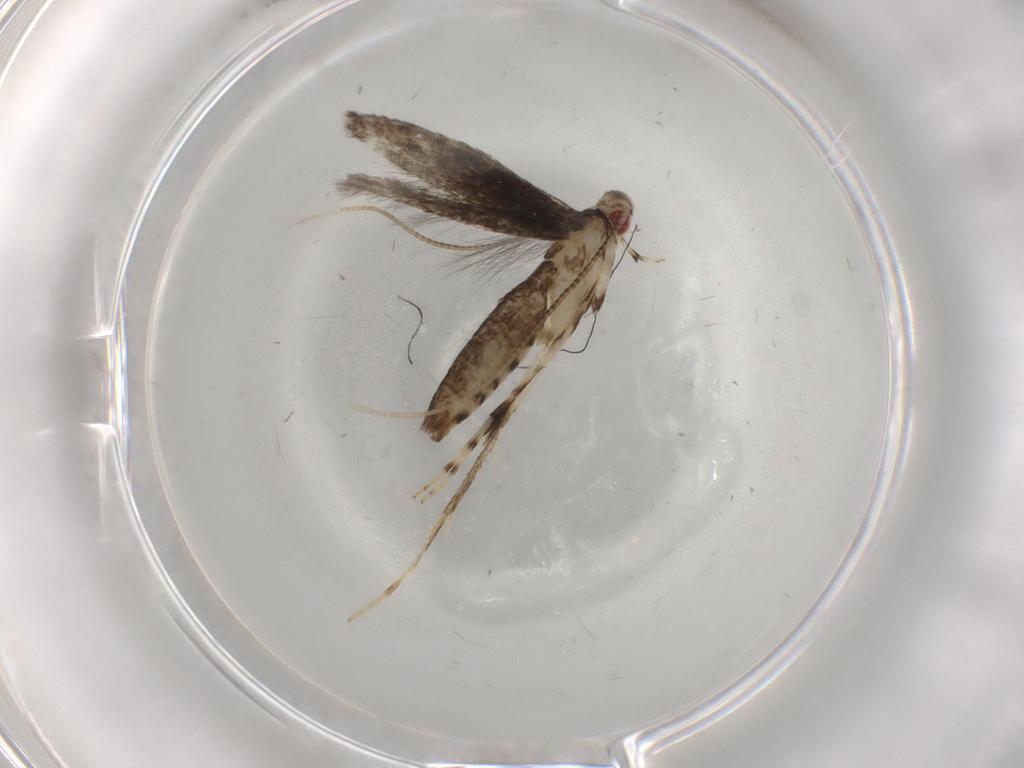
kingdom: Animalia
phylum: Arthropoda
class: Insecta
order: Lepidoptera
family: Gracillariidae
